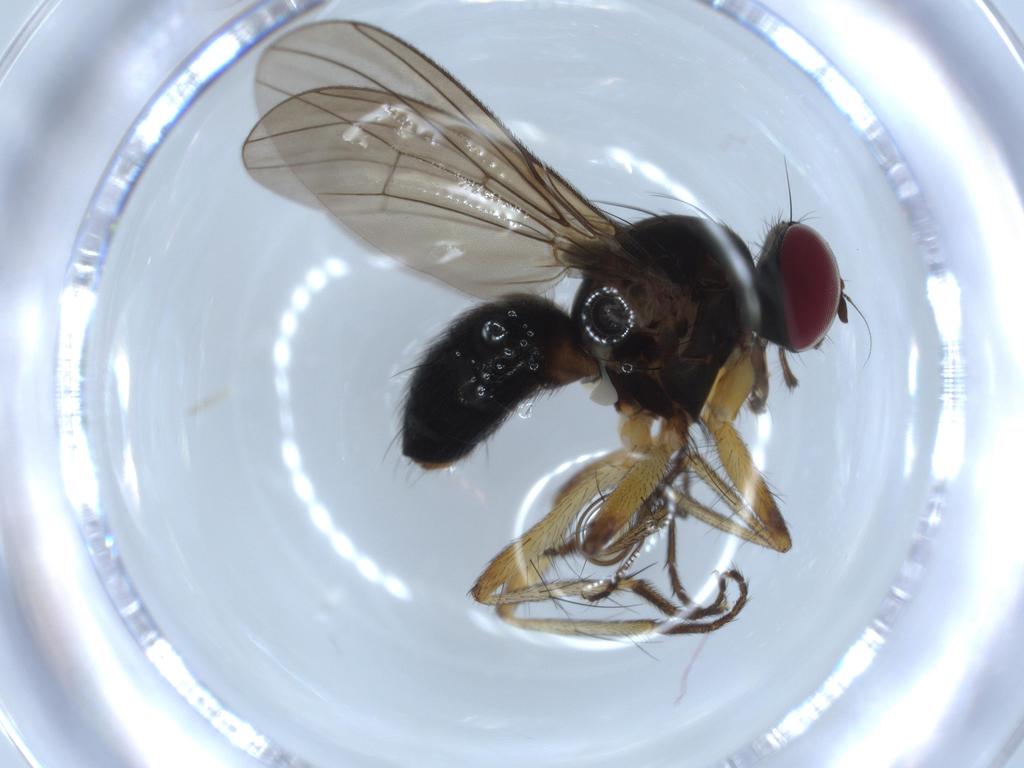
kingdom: Animalia
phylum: Arthropoda
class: Insecta
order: Diptera
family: Muscidae
